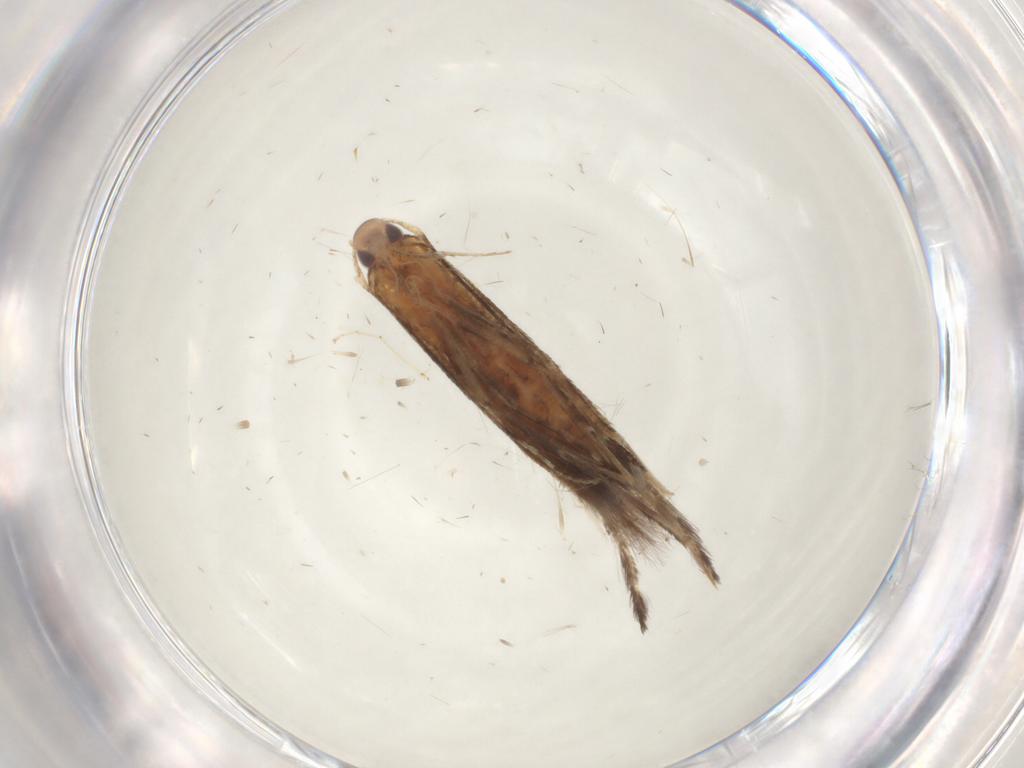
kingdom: Animalia
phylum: Arthropoda
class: Insecta
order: Lepidoptera
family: Cosmopterigidae
